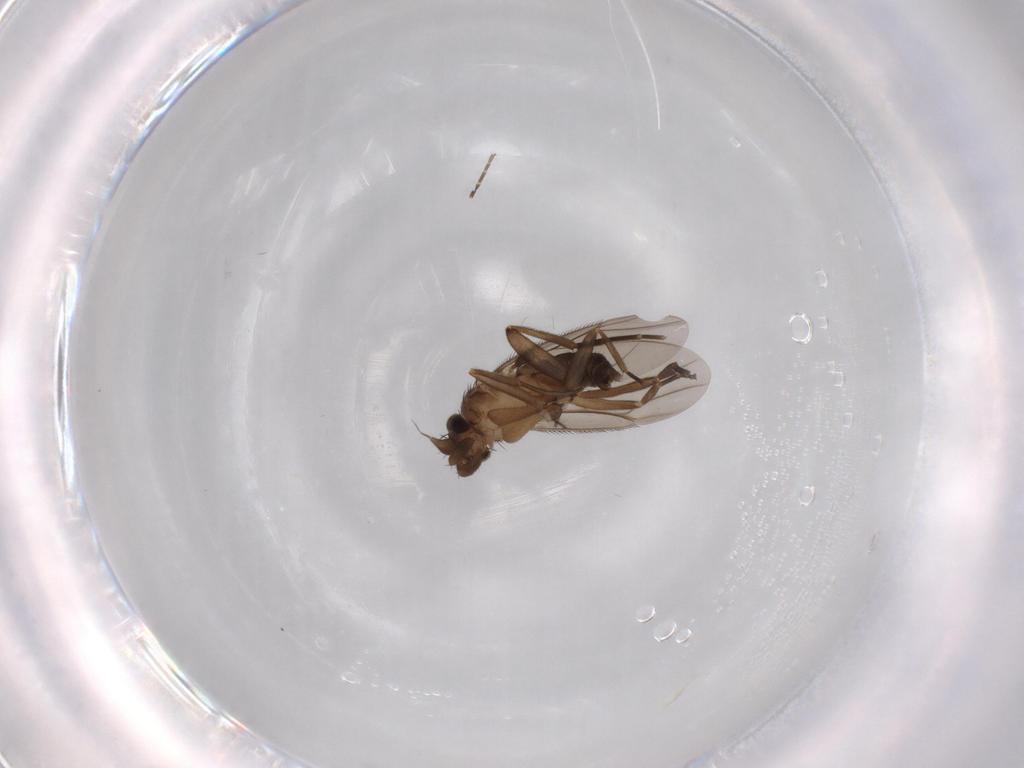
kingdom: Animalia
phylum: Arthropoda
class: Insecta
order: Diptera
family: Phoridae
